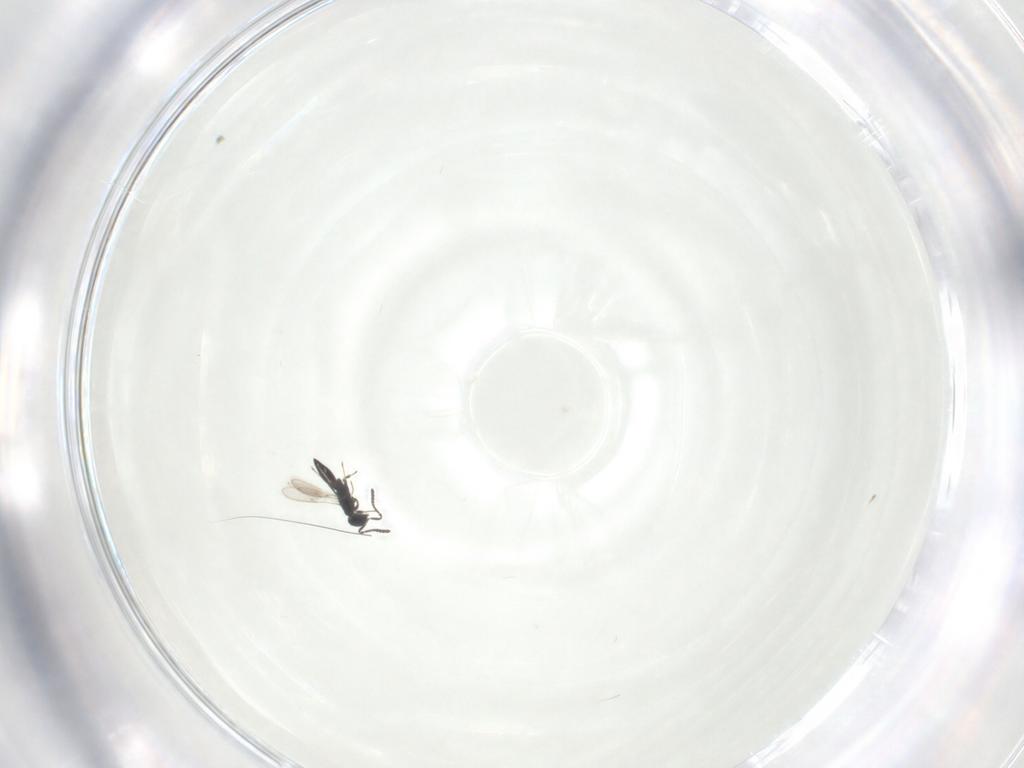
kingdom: Animalia
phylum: Arthropoda
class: Insecta
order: Hymenoptera
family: Scelionidae
